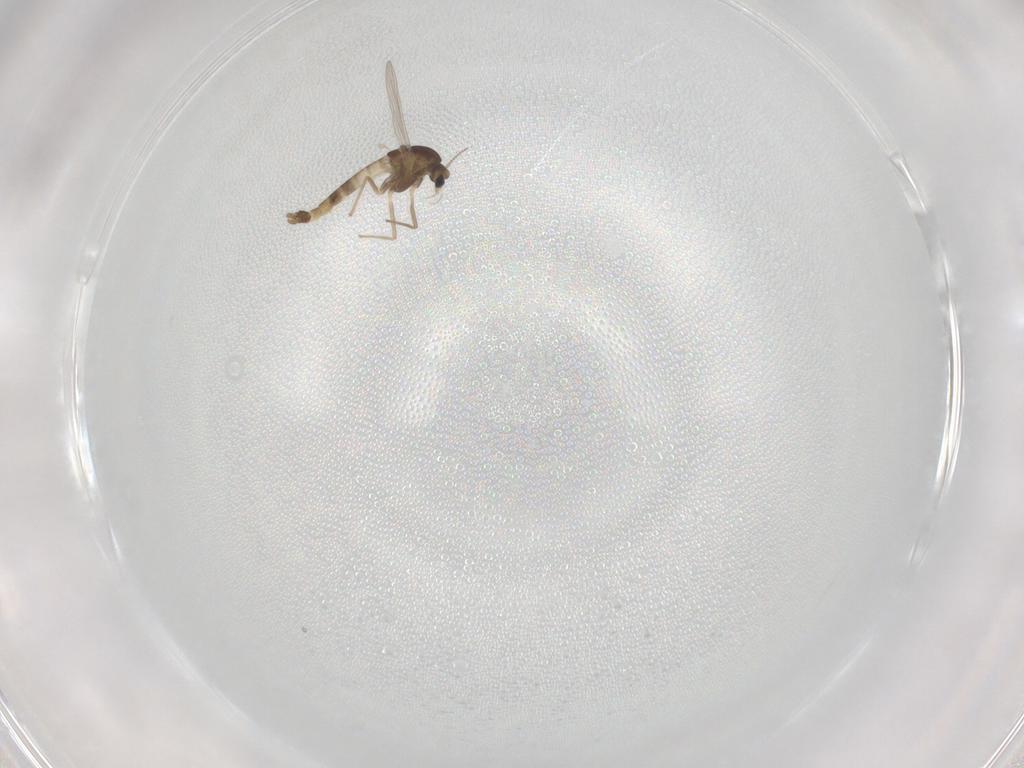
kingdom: Animalia
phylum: Arthropoda
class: Insecta
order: Diptera
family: Chironomidae
